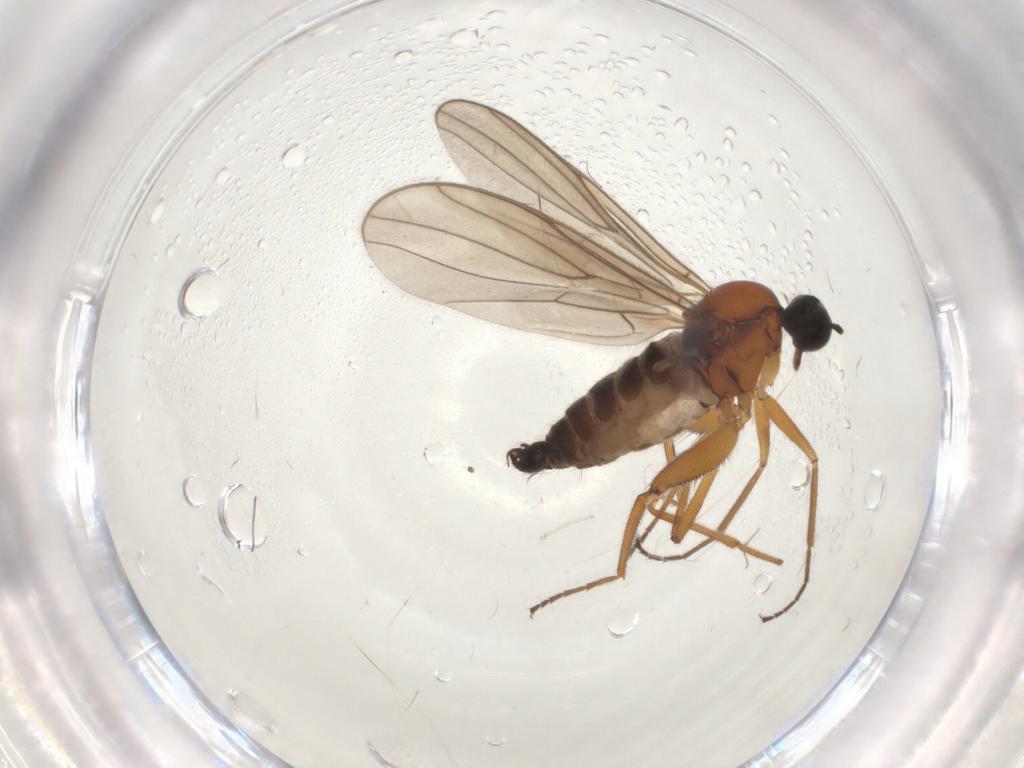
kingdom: Animalia
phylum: Arthropoda
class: Insecta
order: Diptera
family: Hybotidae
